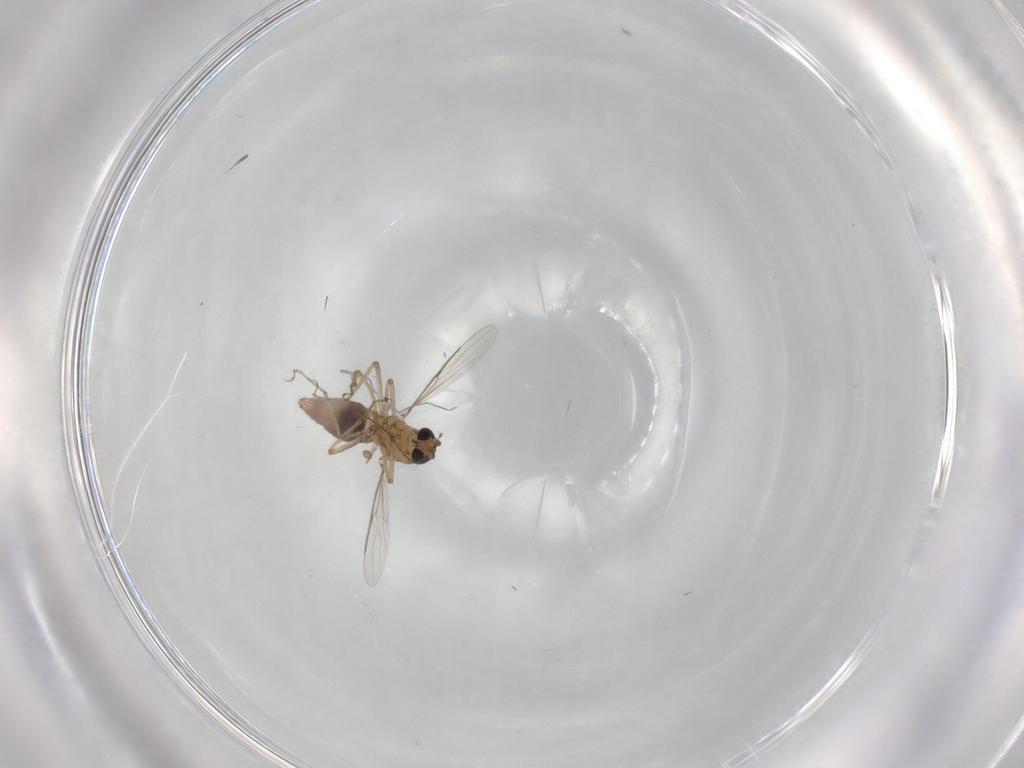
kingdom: Animalia
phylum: Arthropoda
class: Insecta
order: Diptera
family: Ceratopogonidae
